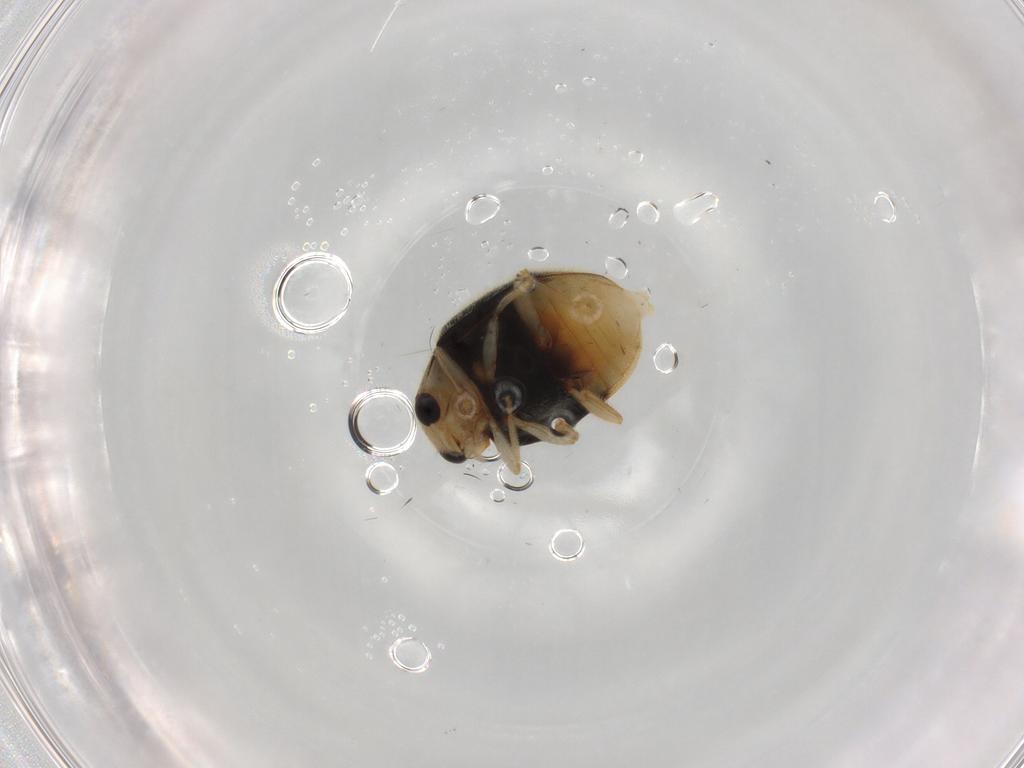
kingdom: Animalia
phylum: Arthropoda
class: Insecta
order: Coleoptera
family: Coccinellidae
